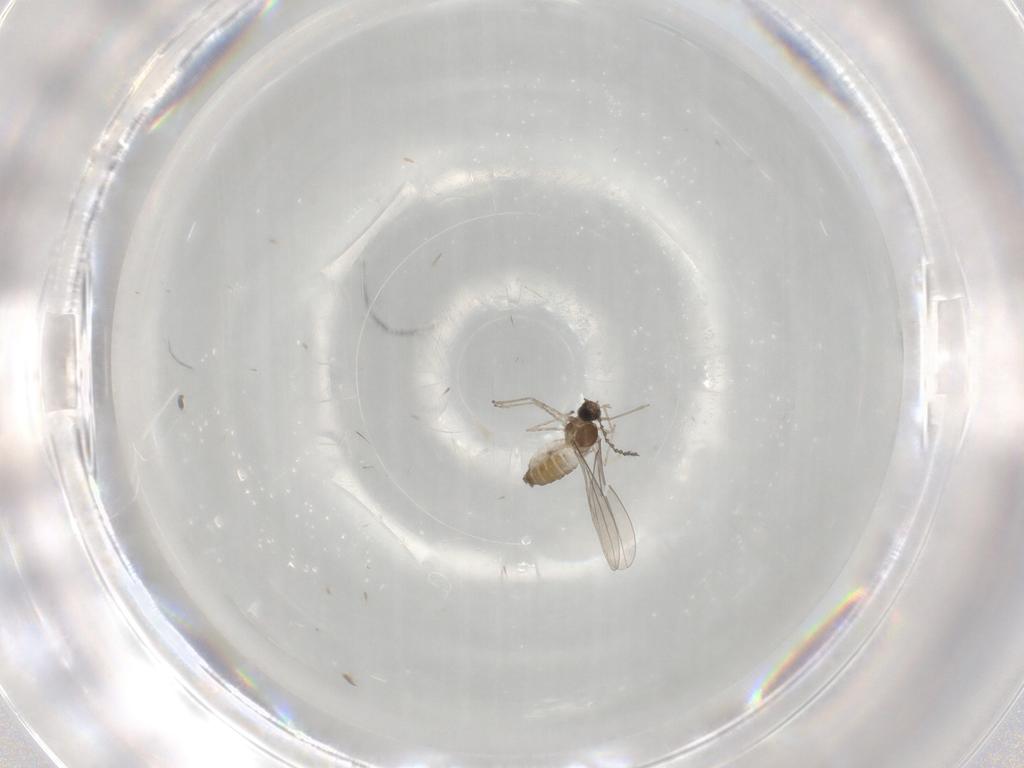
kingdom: Animalia
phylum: Arthropoda
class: Insecta
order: Diptera
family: Cecidomyiidae
